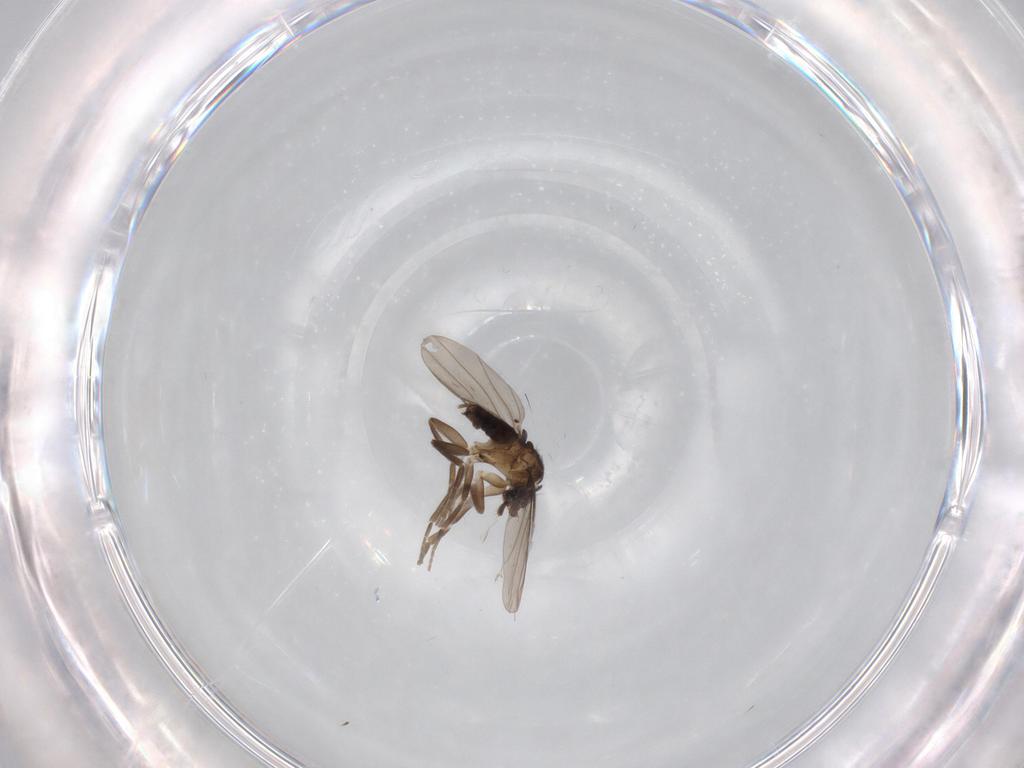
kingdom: Animalia
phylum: Arthropoda
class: Insecta
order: Diptera
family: Phoridae
